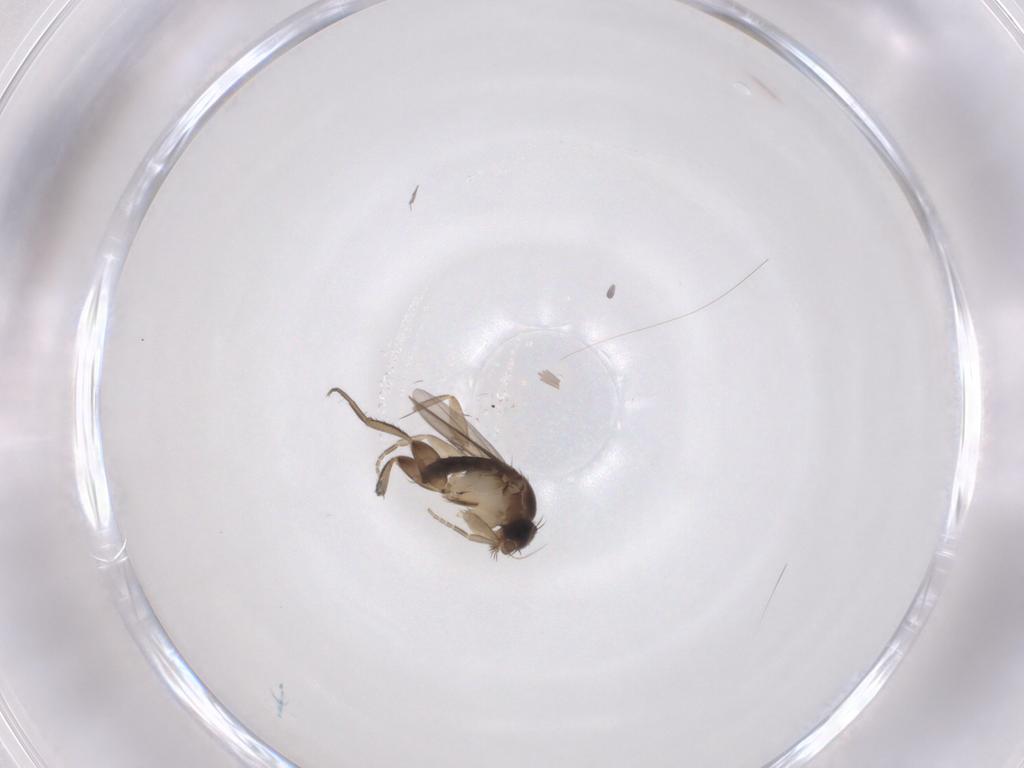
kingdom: Animalia
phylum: Arthropoda
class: Insecta
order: Diptera
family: Phoridae
